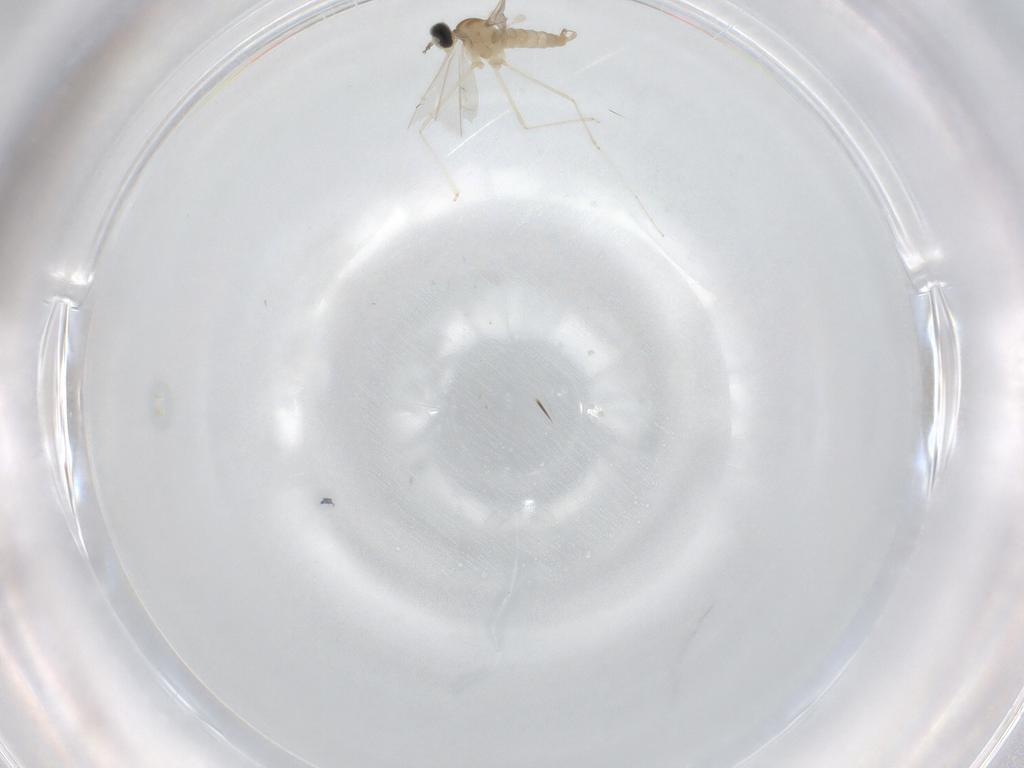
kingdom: Animalia
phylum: Arthropoda
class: Insecta
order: Diptera
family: Cecidomyiidae
